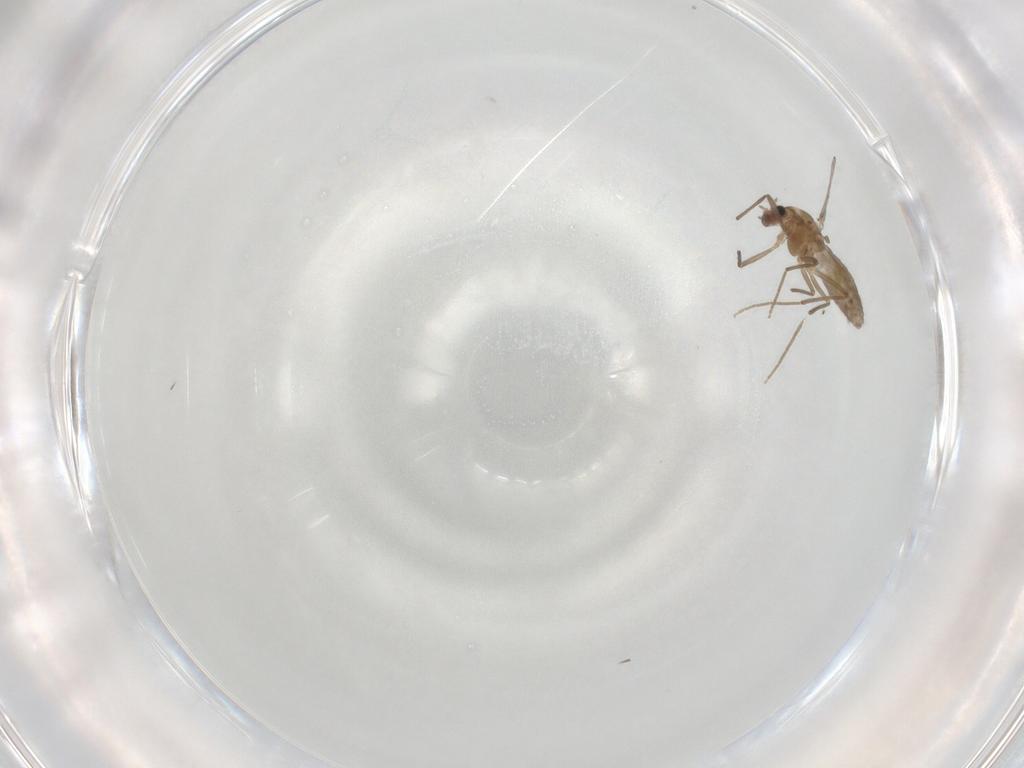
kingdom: Animalia
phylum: Arthropoda
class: Insecta
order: Diptera
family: Chironomidae
